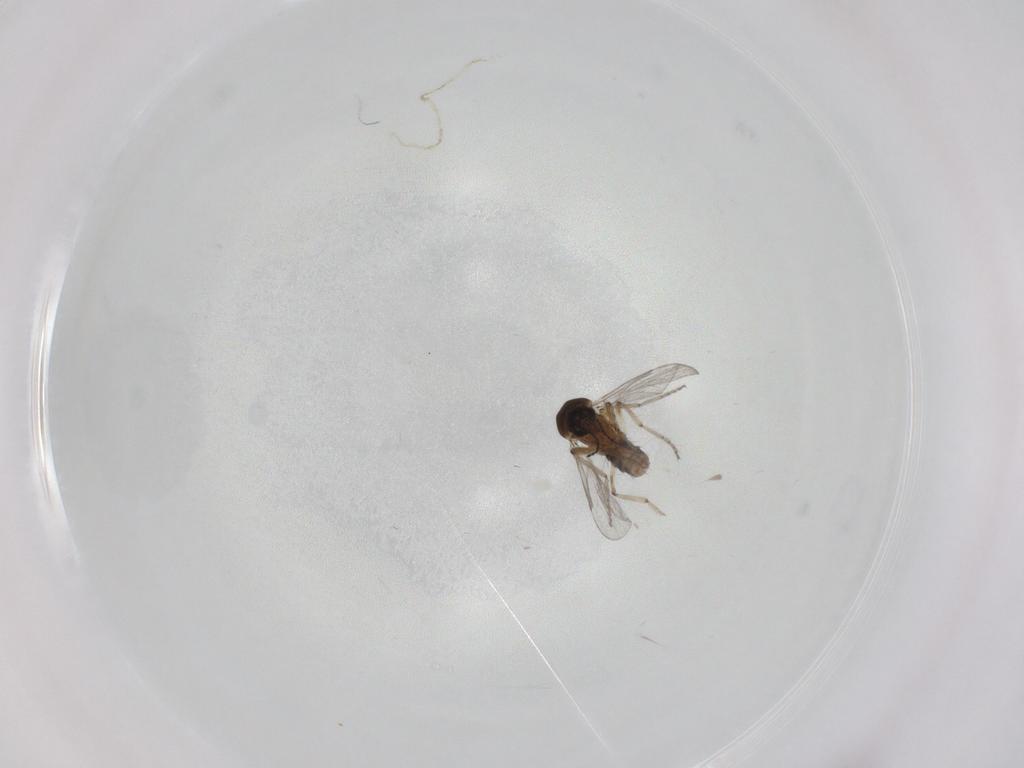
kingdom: Animalia
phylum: Arthropoda
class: Insecta
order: Diptera
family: Ceratopogonidae
